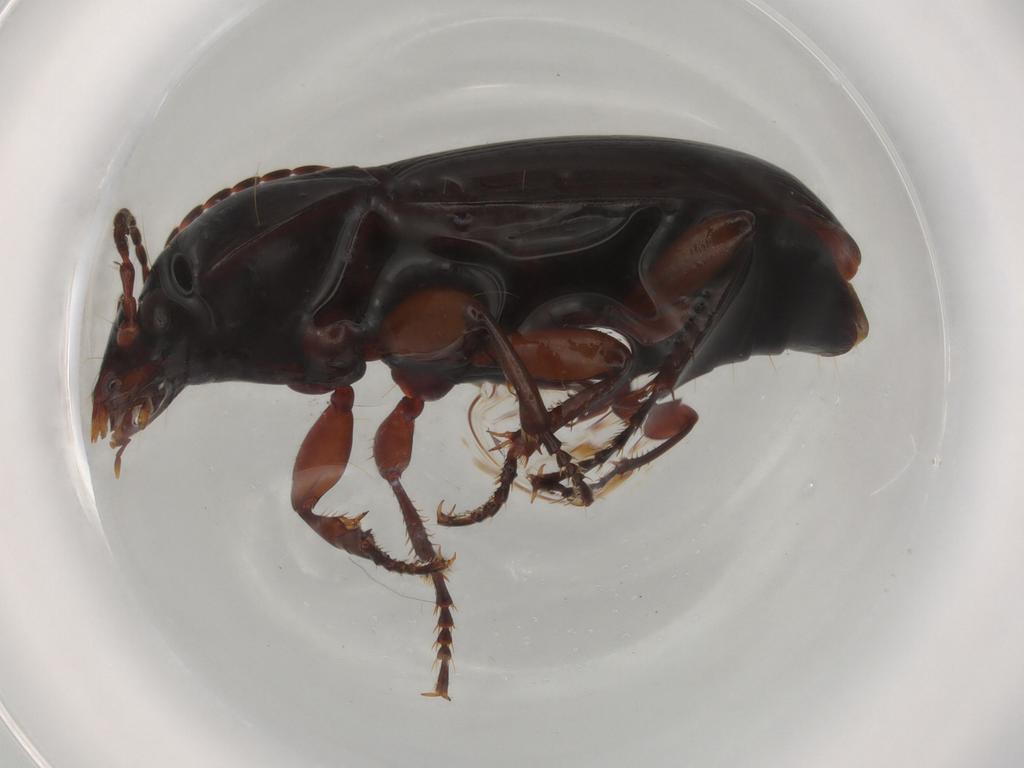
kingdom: Animalia
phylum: Arthropoda
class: Insecta
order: Coleoptera
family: Carabidae
